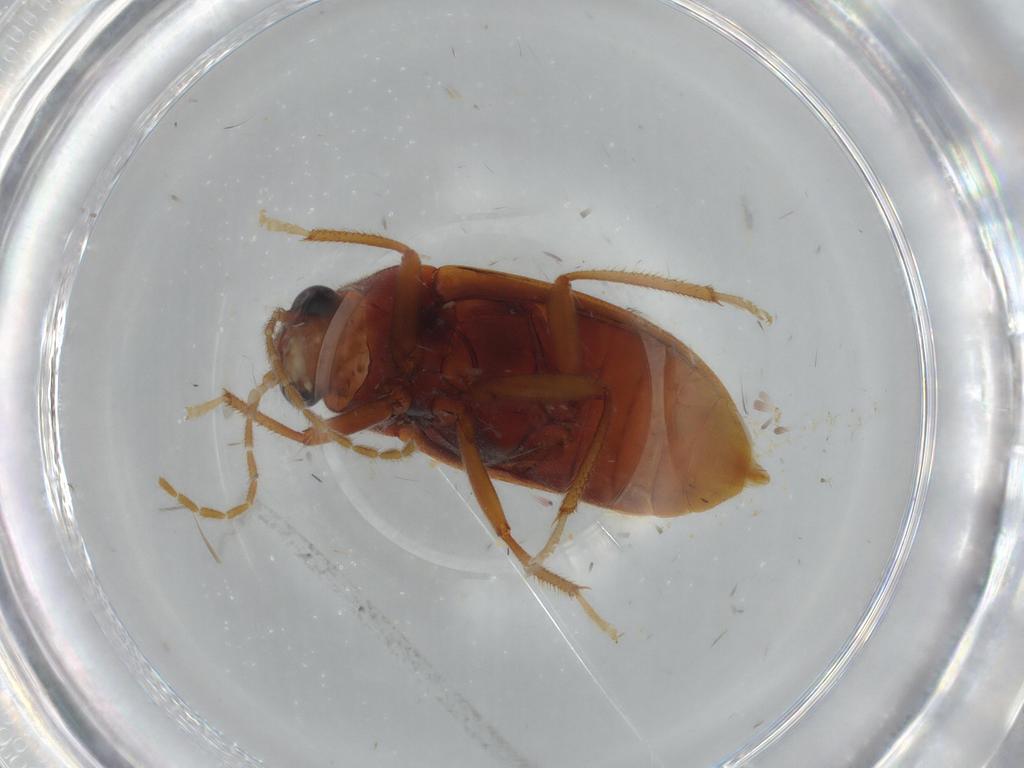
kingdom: Animalia
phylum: Arthropoda
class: Insecta
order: Coleoptera
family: Ptilodactylidae
